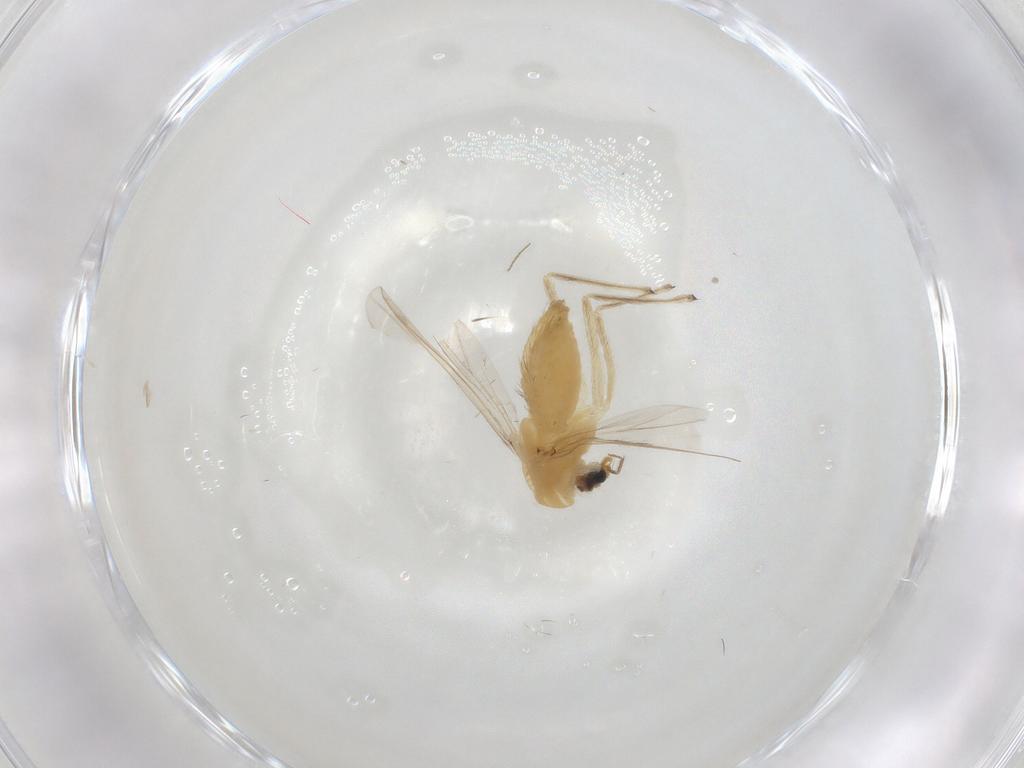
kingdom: Animalia
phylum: Arthropoda
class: Insecta
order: Diptera
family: Chironomidae
